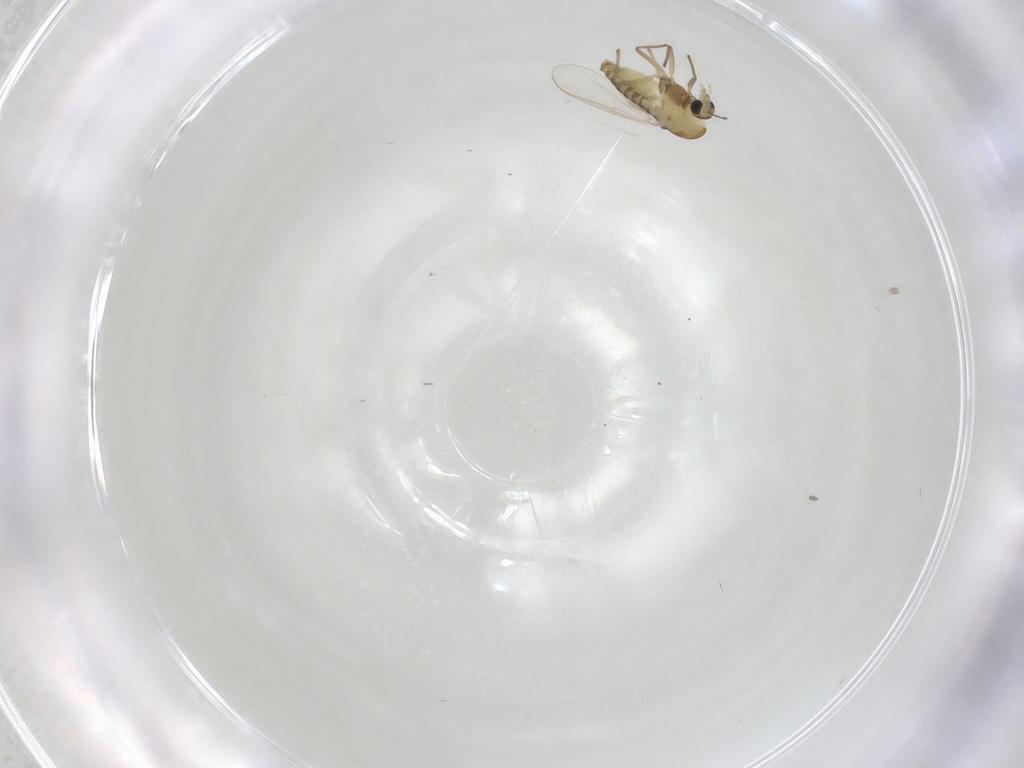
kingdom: Animalia
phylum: Arthropoda
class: Insecta
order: Diptera
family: Chironomidae
